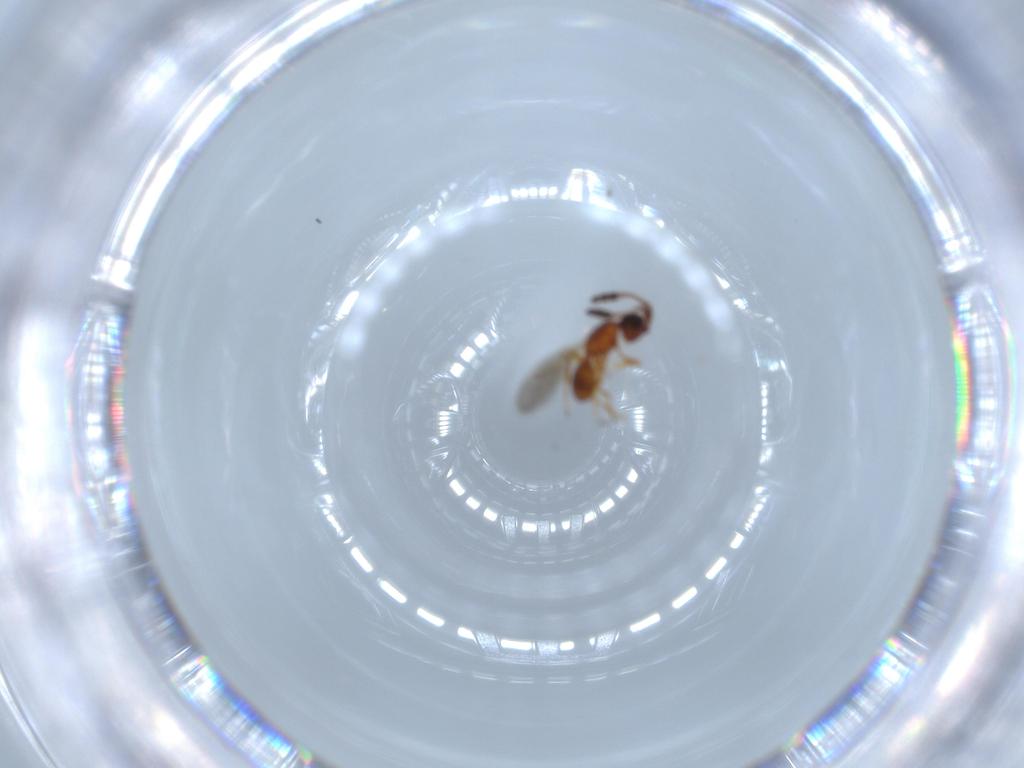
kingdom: Animalia
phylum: Arthropoda
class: Insecta
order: Hymenoptera
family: Diapriidae
